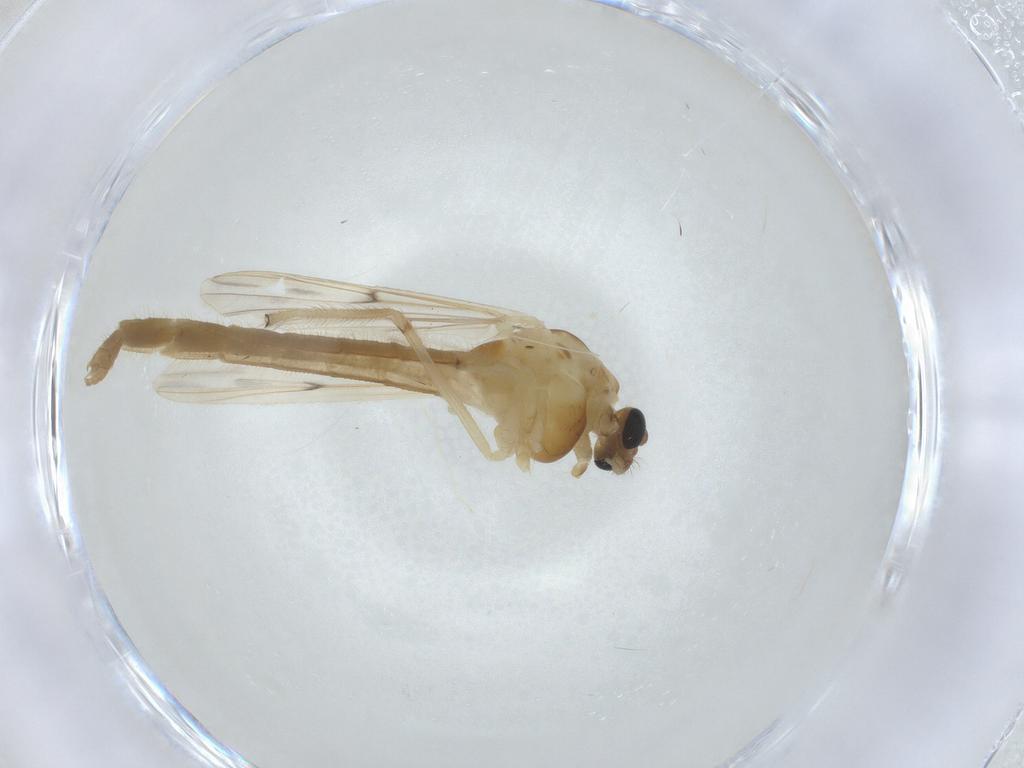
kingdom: Animalia
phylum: Arthropoda
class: Insecta
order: Diptera
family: Chironomidae
